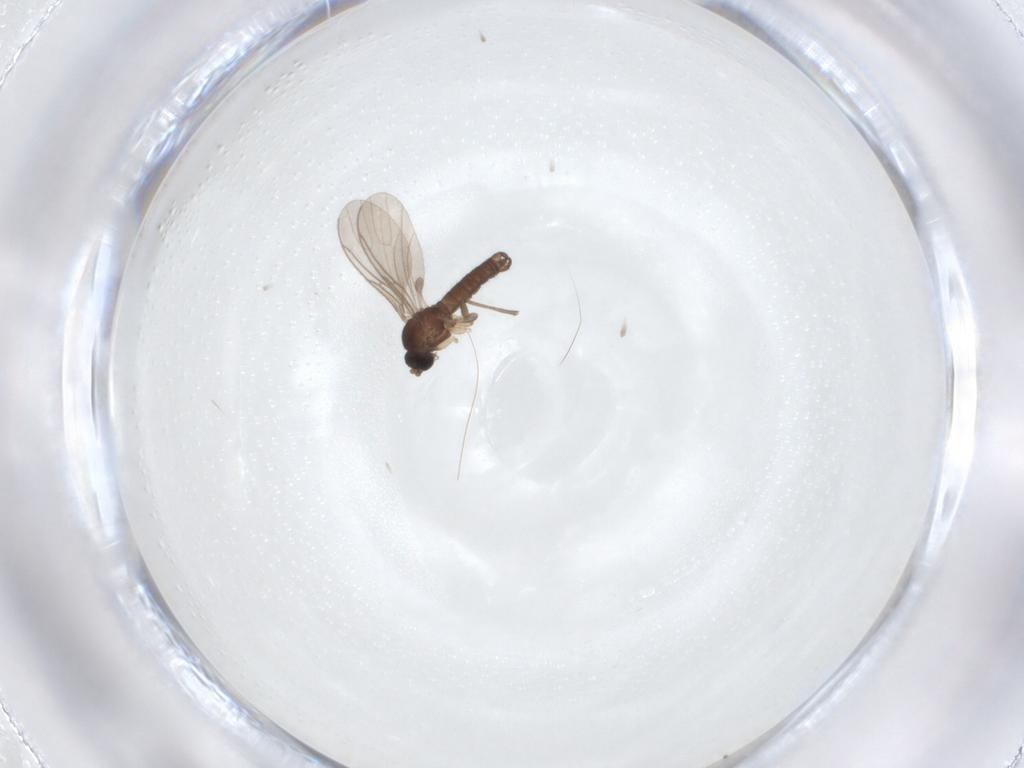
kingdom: Animalia
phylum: Arthropoda
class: Insecta
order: Diptera
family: Sciaridae
